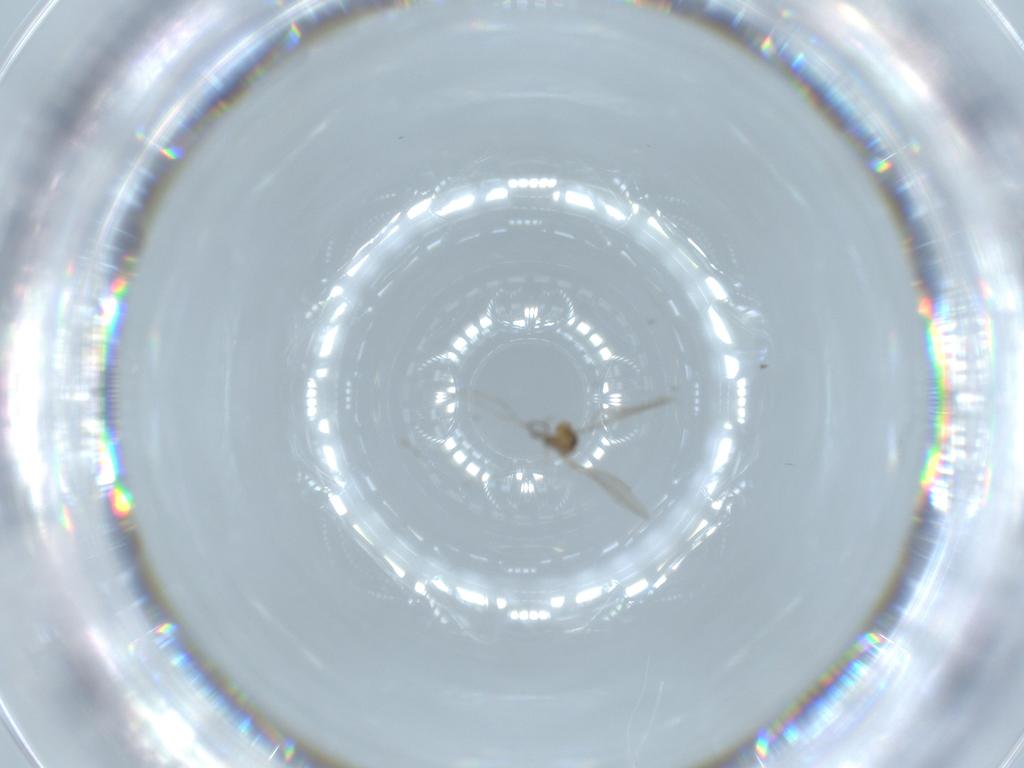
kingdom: Animalia
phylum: Arthropoda
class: Insecta
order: Diptera
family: Cecidomyiidae
